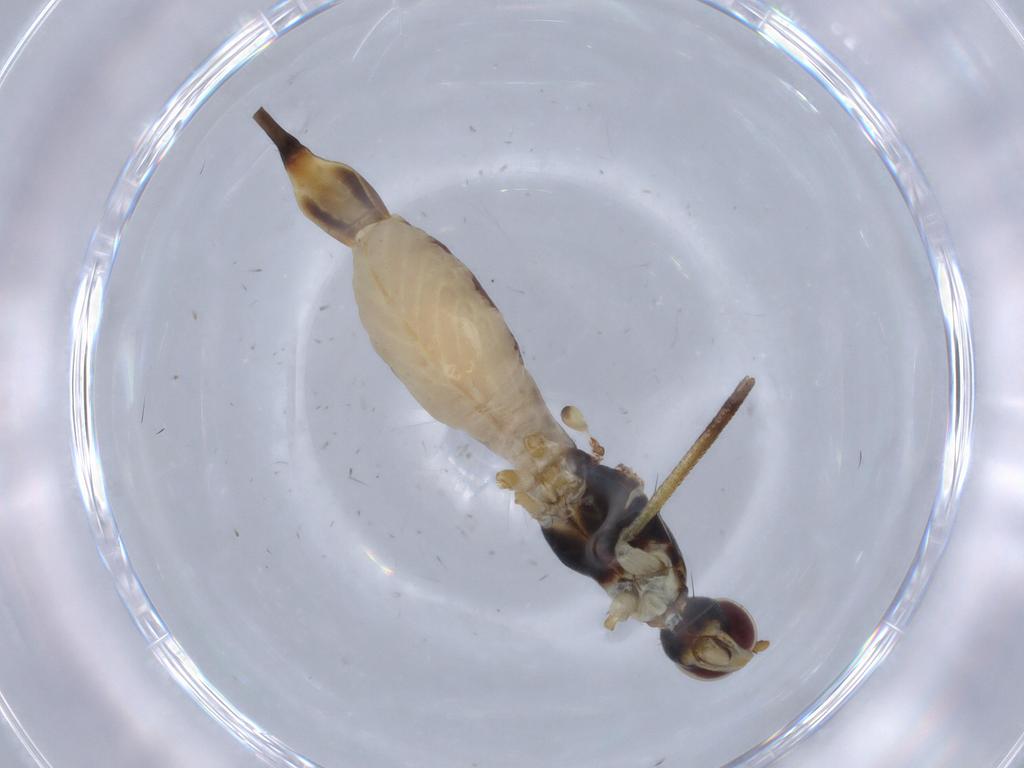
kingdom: Animalia
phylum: Arthropoda
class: Insecta
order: Diptera
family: Micropezidae
